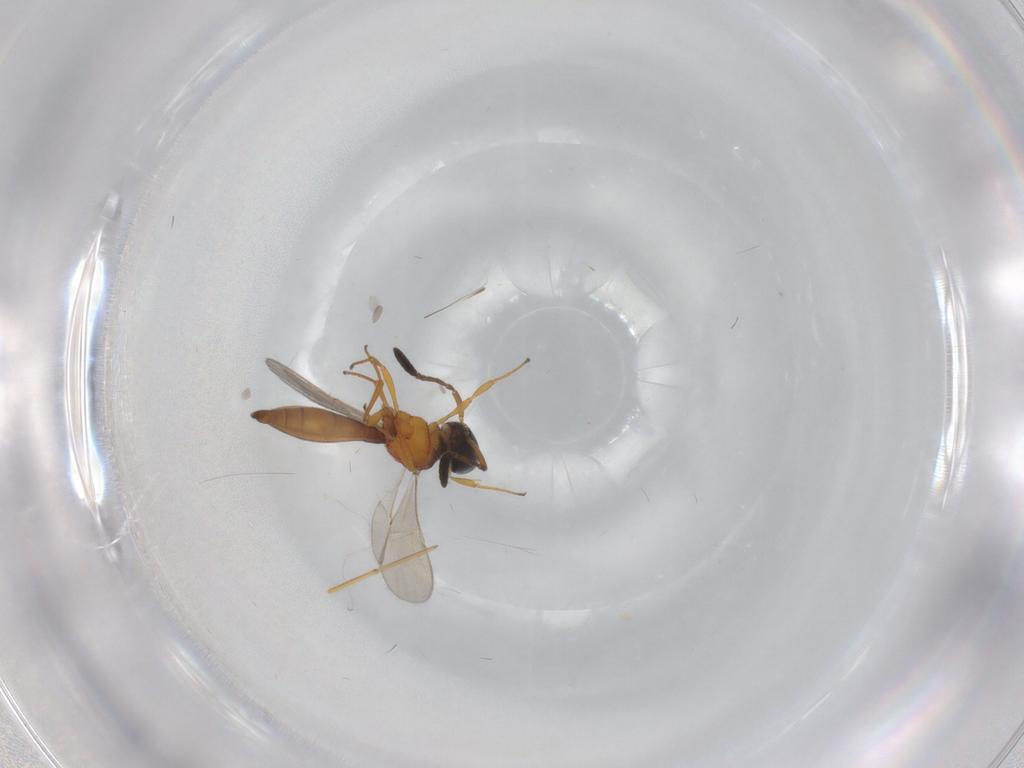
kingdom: Animalia
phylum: Arthropoda
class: Insecta
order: Hymenoptera
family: Scelionidae
